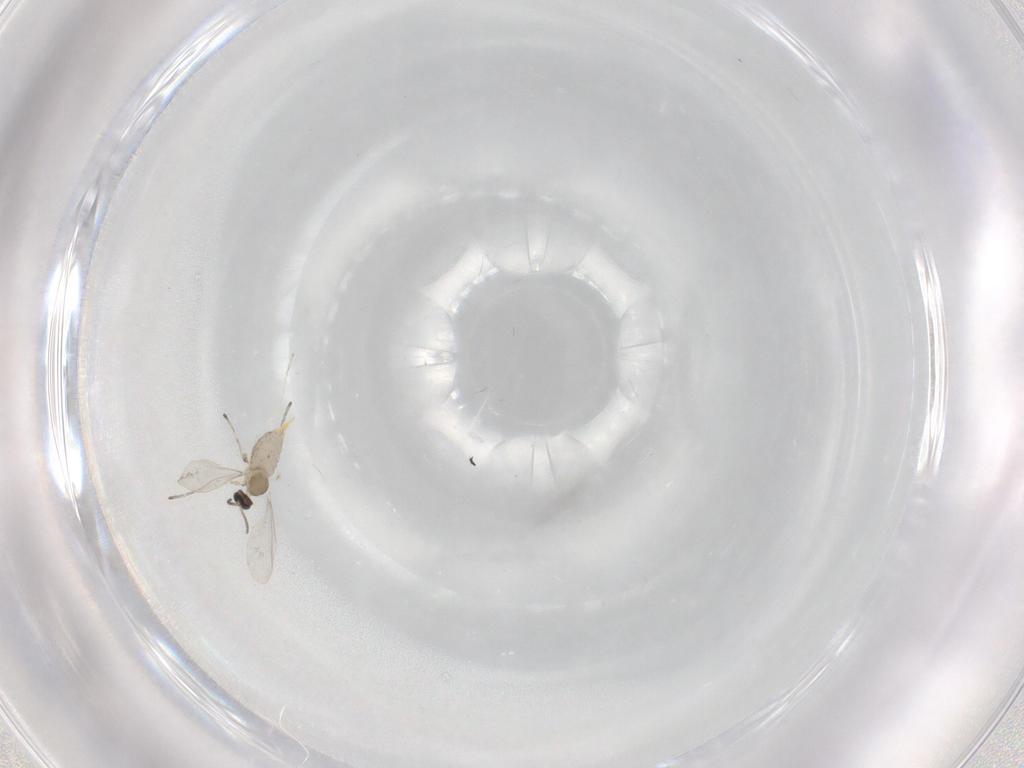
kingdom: Animalia
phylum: Arthropoda
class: Insecta
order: Diptera
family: Cecidomyiidae
